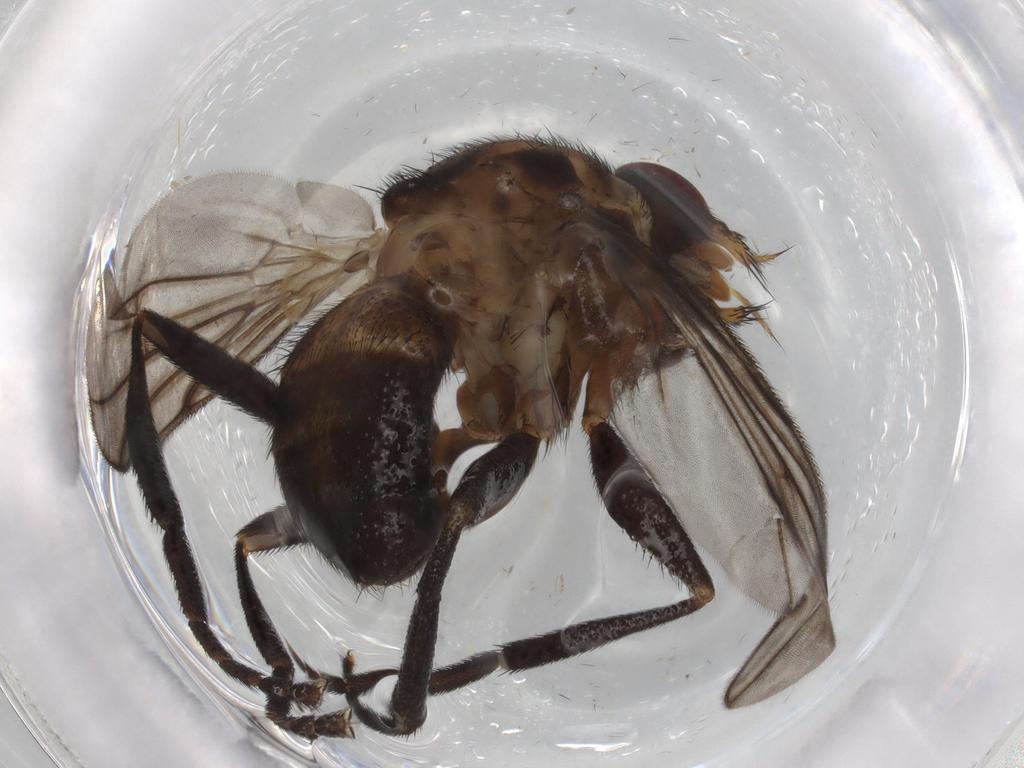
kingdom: Animalia
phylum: Arthropoda
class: Insecta
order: Diptera
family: Calliphoridae
